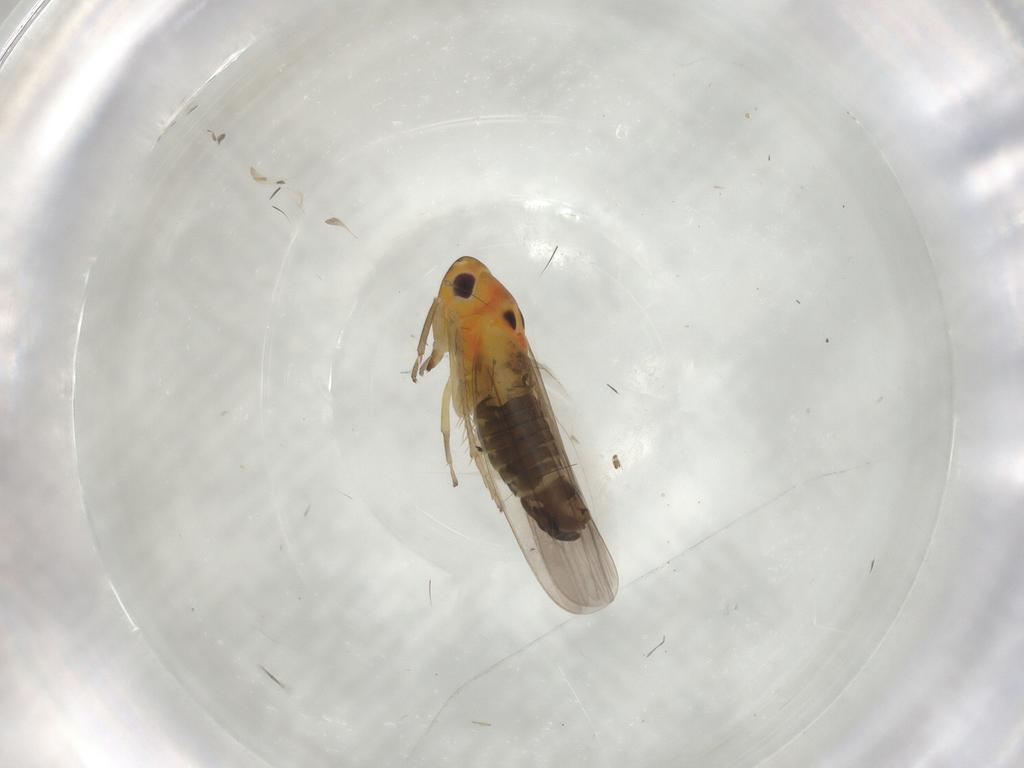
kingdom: Animalia
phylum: Arthropoda
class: Insecta
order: Hemiptera
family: Cicadellidae
